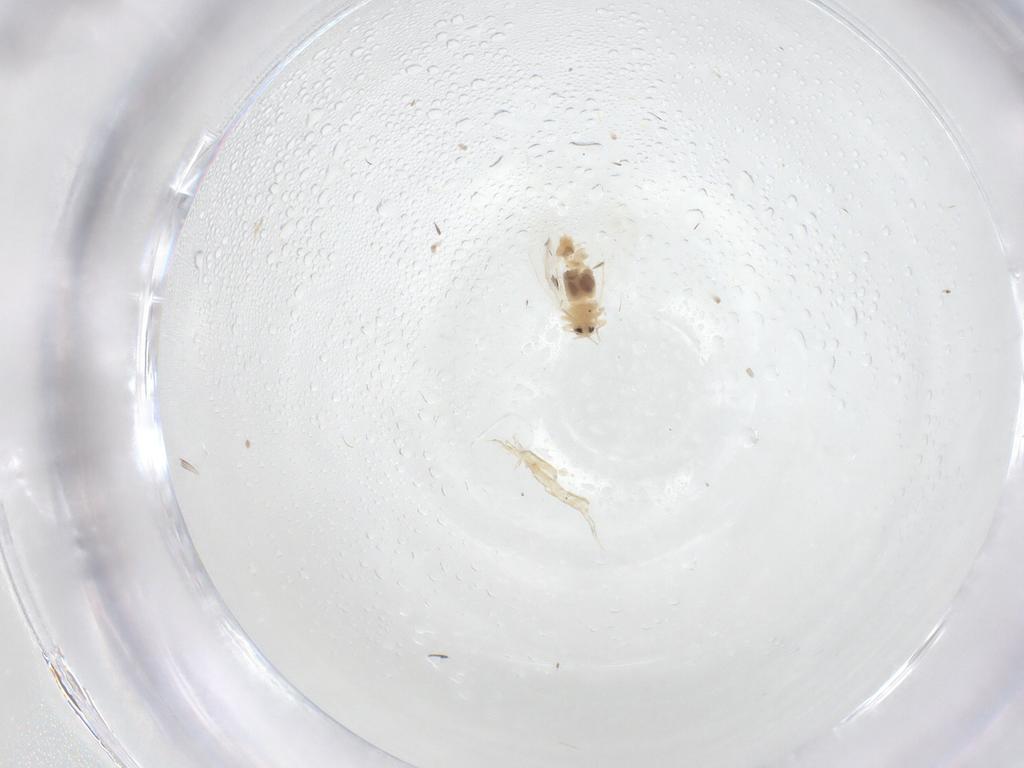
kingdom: Animalia
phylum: Arthropoda
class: Insecta
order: Hemiptera
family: Aleyrodidae
